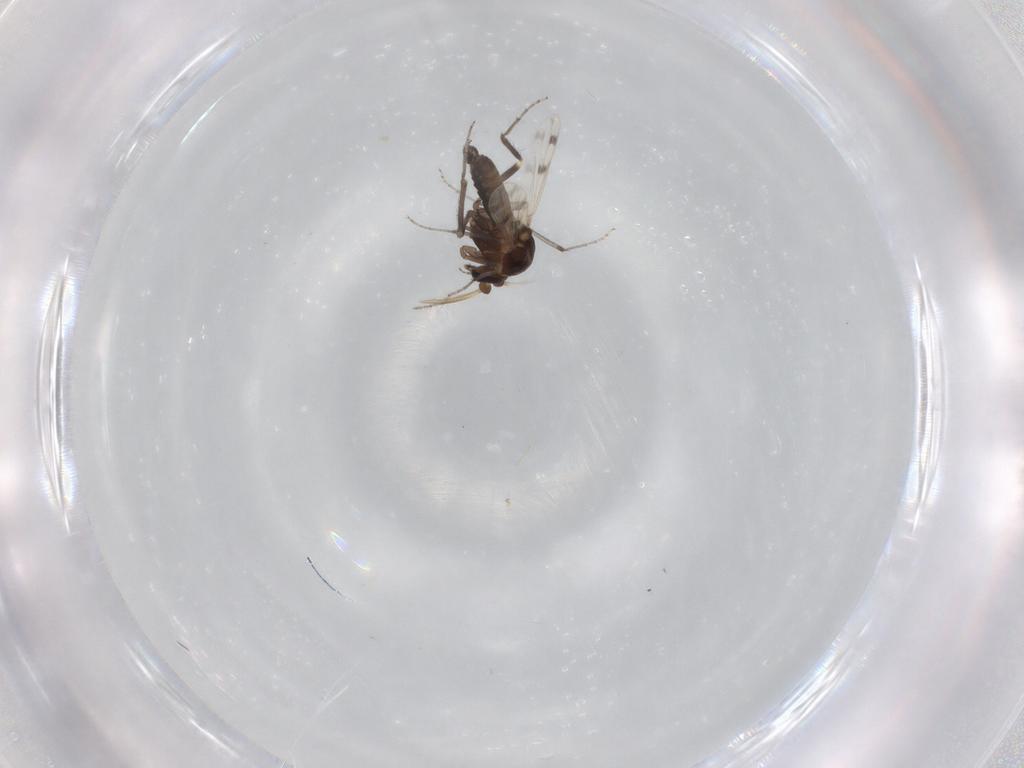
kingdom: Animalia
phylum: Arthropoda
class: Insecta
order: Diptera
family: Ceratopogonidae
